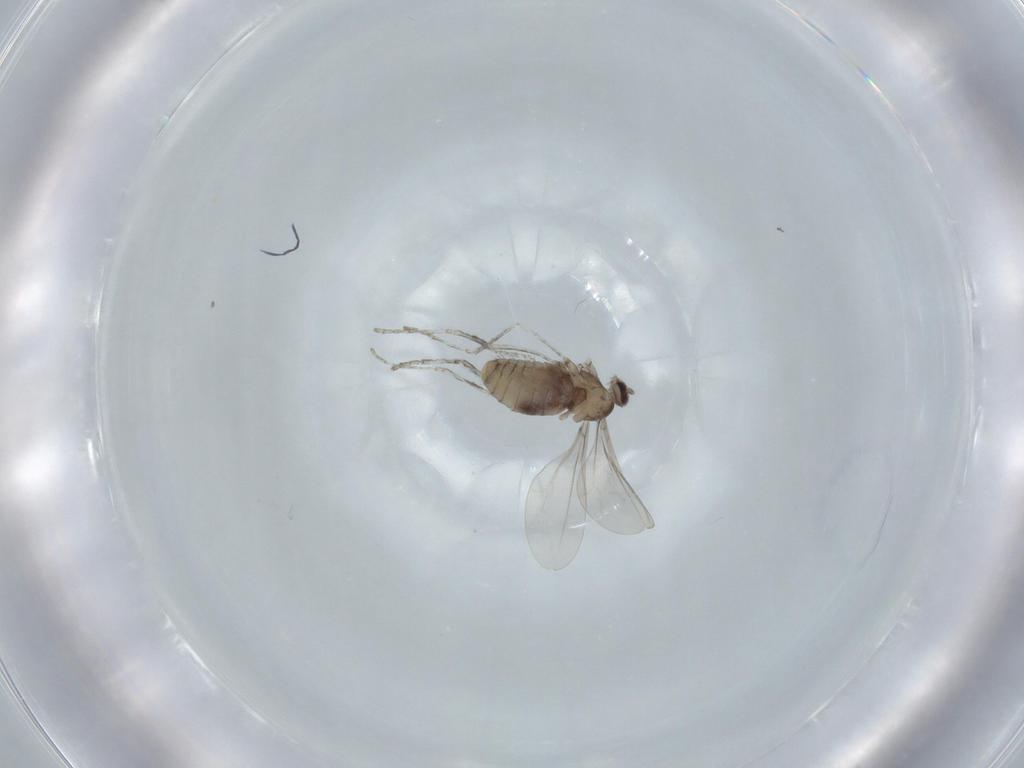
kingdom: Animalia
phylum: Arthropoda
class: Insecta
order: Diptera
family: Cecidomyiidae
